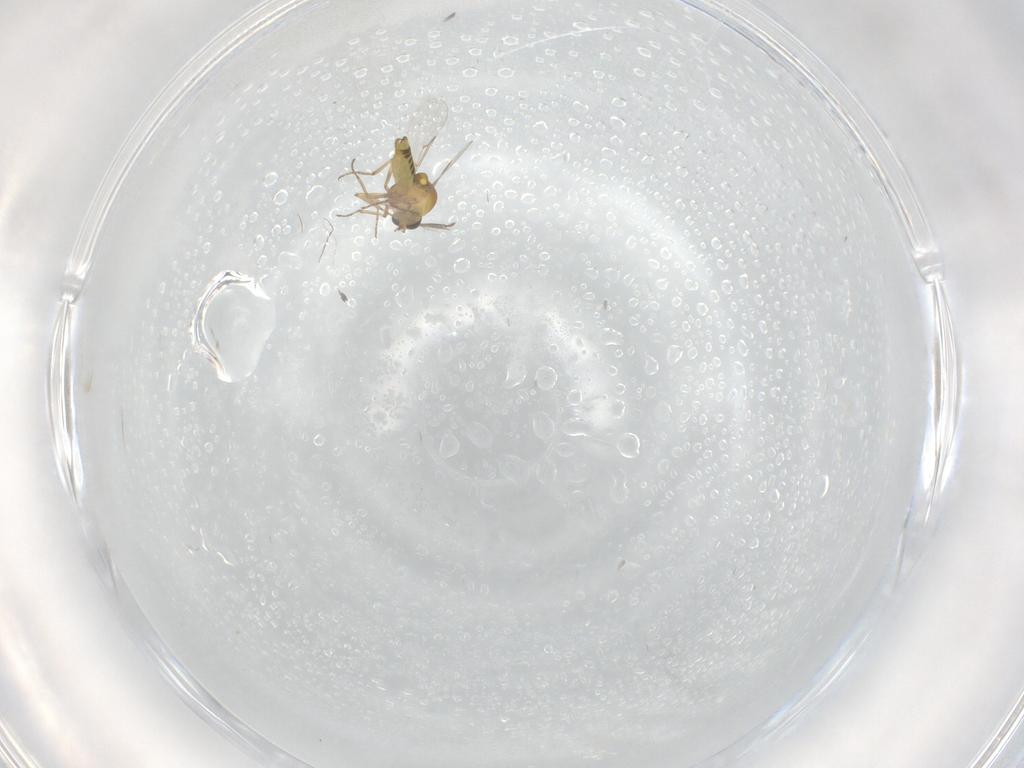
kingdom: Animalia
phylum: Arthropoda
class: Insecta
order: Diptera
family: Ceratopogonidae
